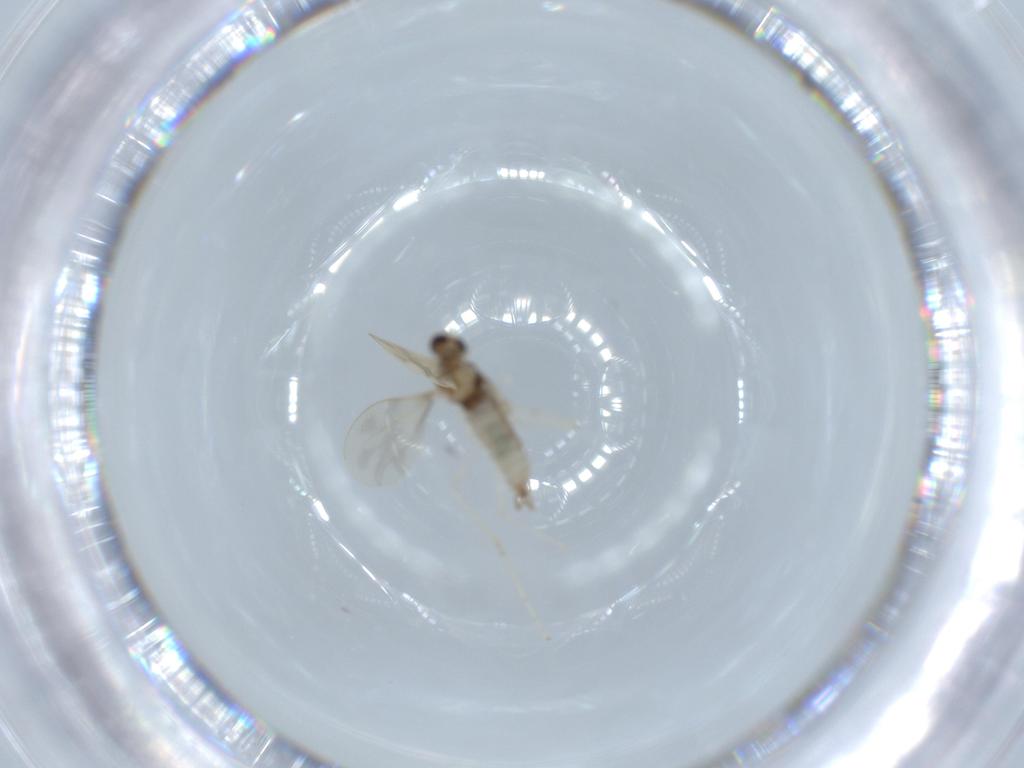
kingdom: Animalia
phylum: Arthropoda
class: Insecta
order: Diptera
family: Cecidomyiidae
